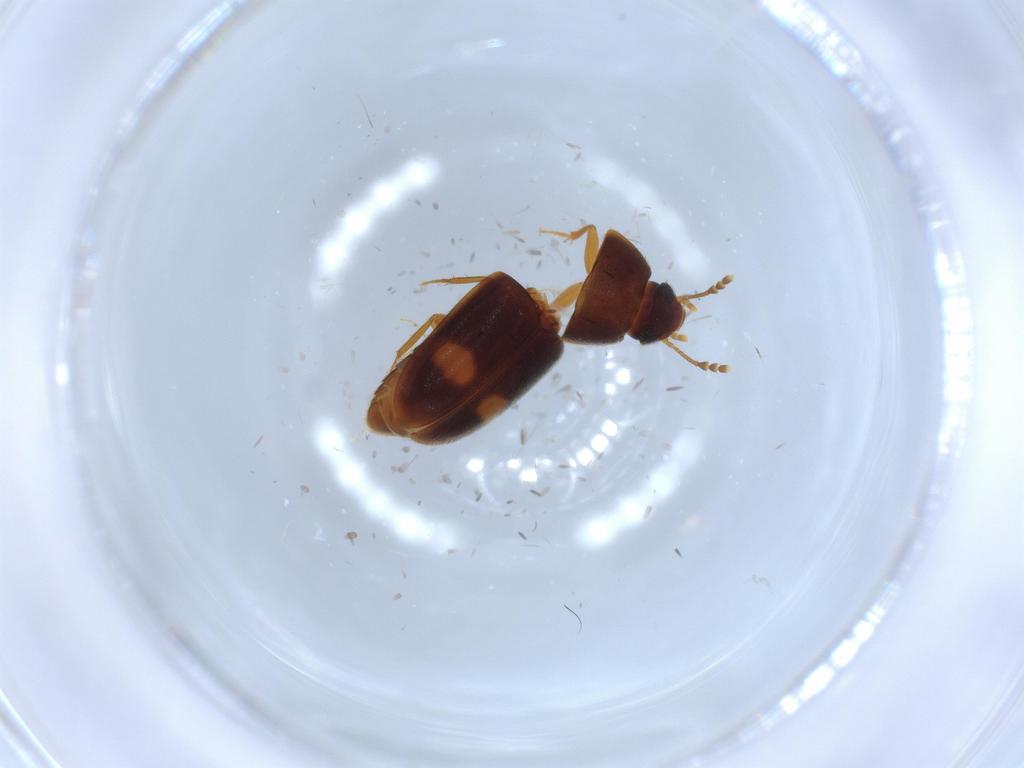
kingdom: Animalia
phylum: Arthropoda
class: Insecta
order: Coleoptera
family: Mycetophagidae
